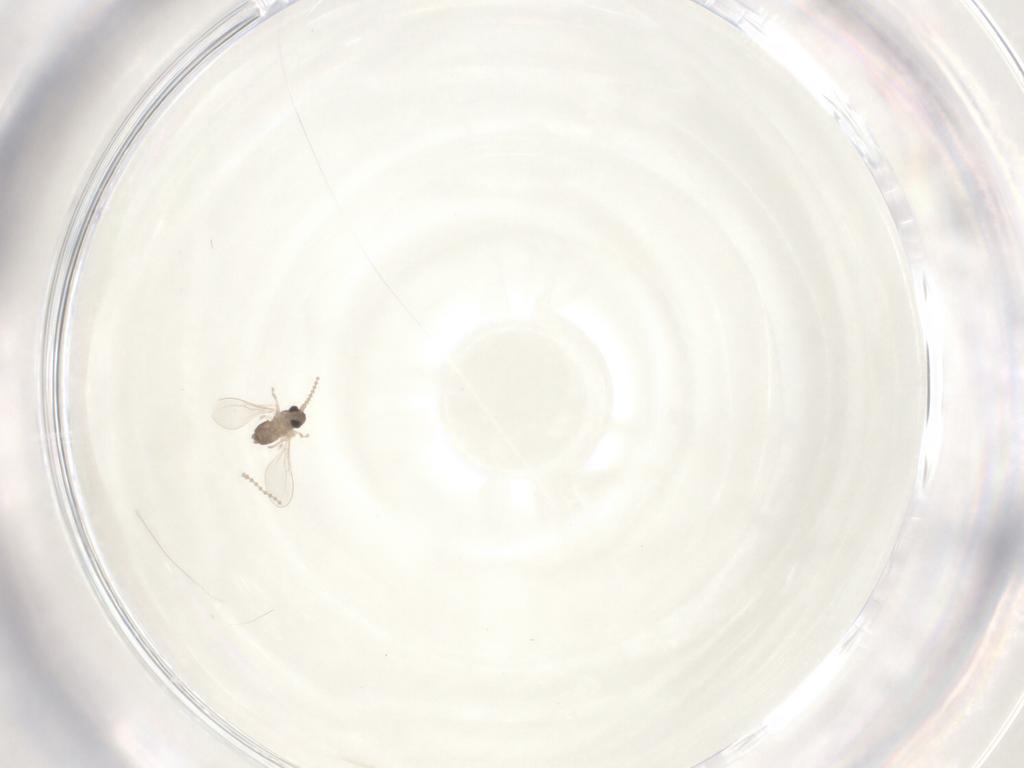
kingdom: Animalia
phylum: Arthropoda
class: Insecta
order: Diptera
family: Cecidomyiidae
